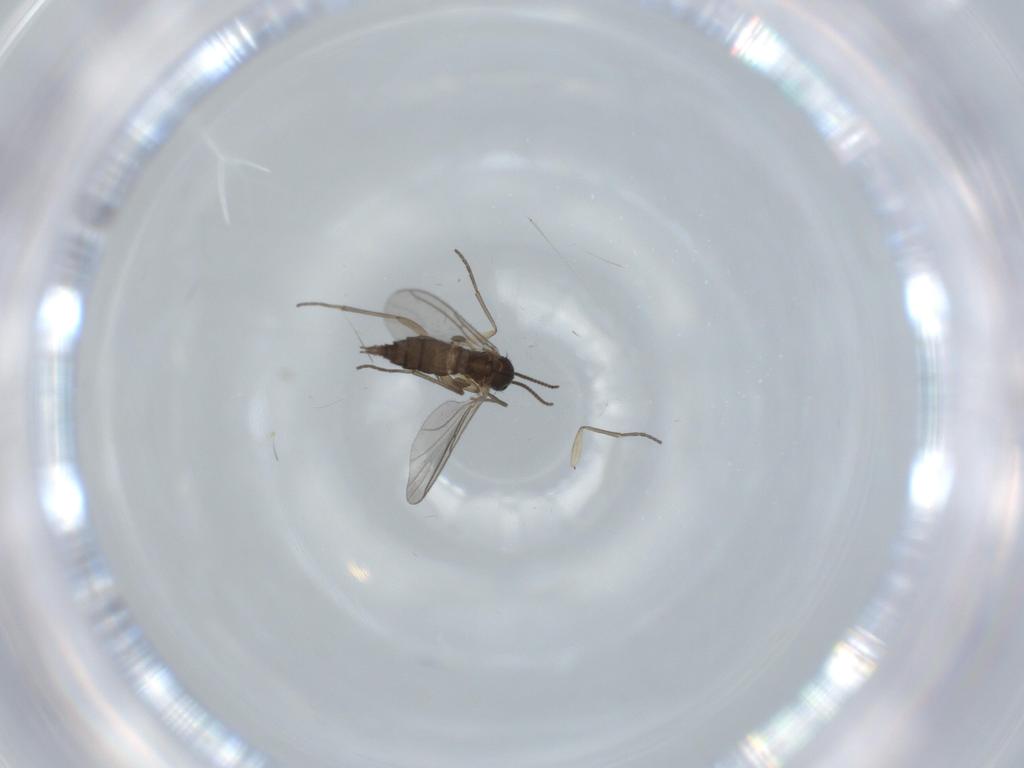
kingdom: Animalia
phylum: Arthropoda
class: Insecta
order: Diptera
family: Sciaridae
